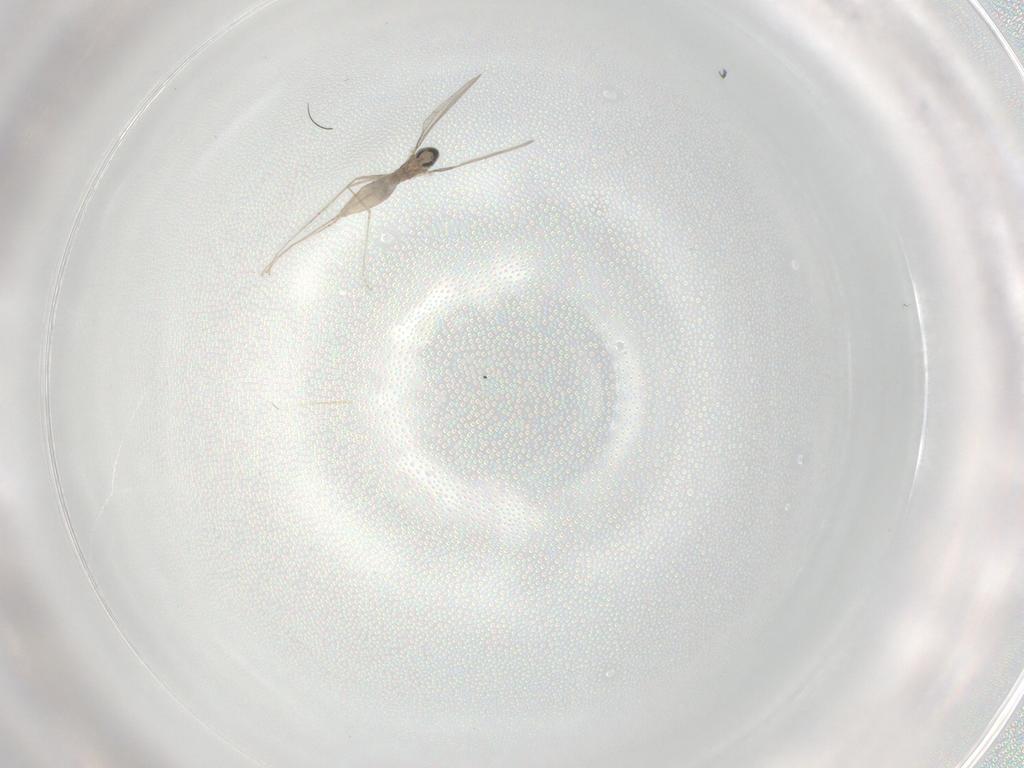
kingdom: Animalia
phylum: Arthropoda
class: Insecta
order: Diptera
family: Cecidomyiidae
